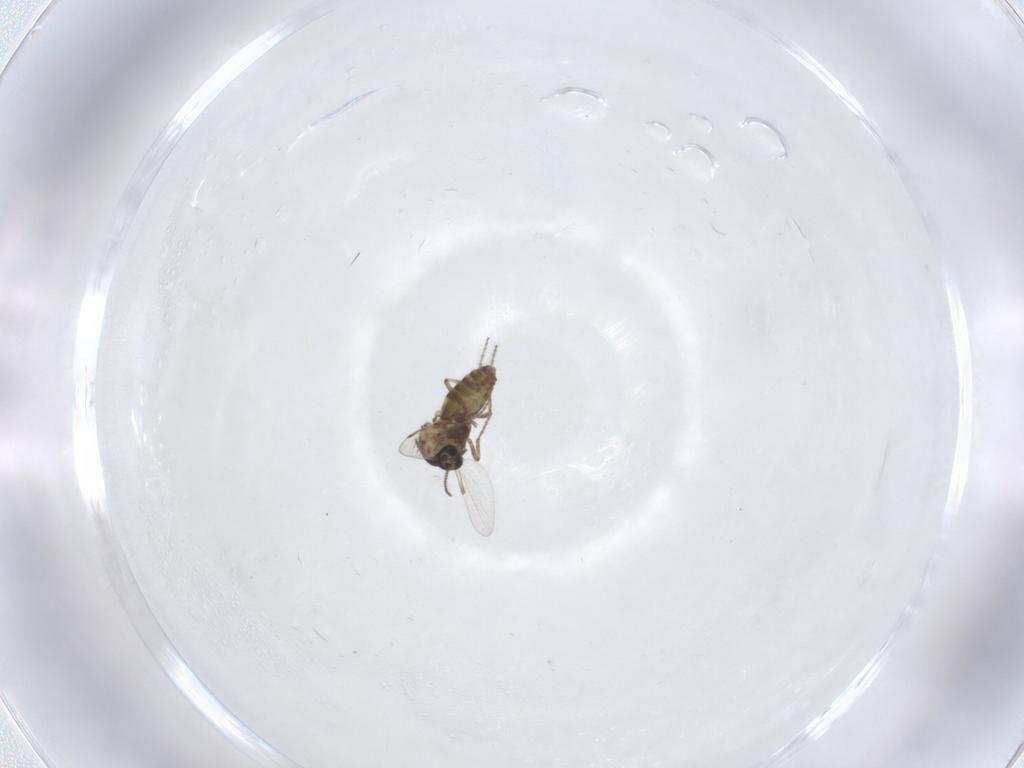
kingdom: Animalia
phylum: Arthropoda
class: Insecta
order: Diptera
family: Ceratopogonidae
